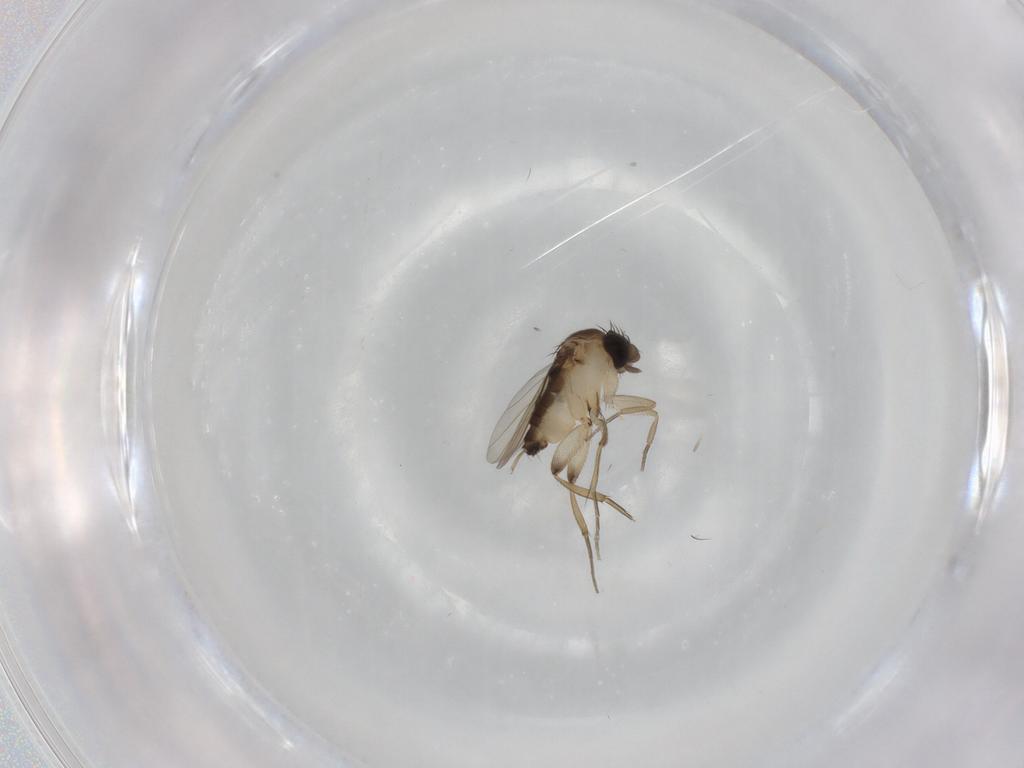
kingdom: Animalia
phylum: Arthropoda
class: Insecta
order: Diptera
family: Phoridae
